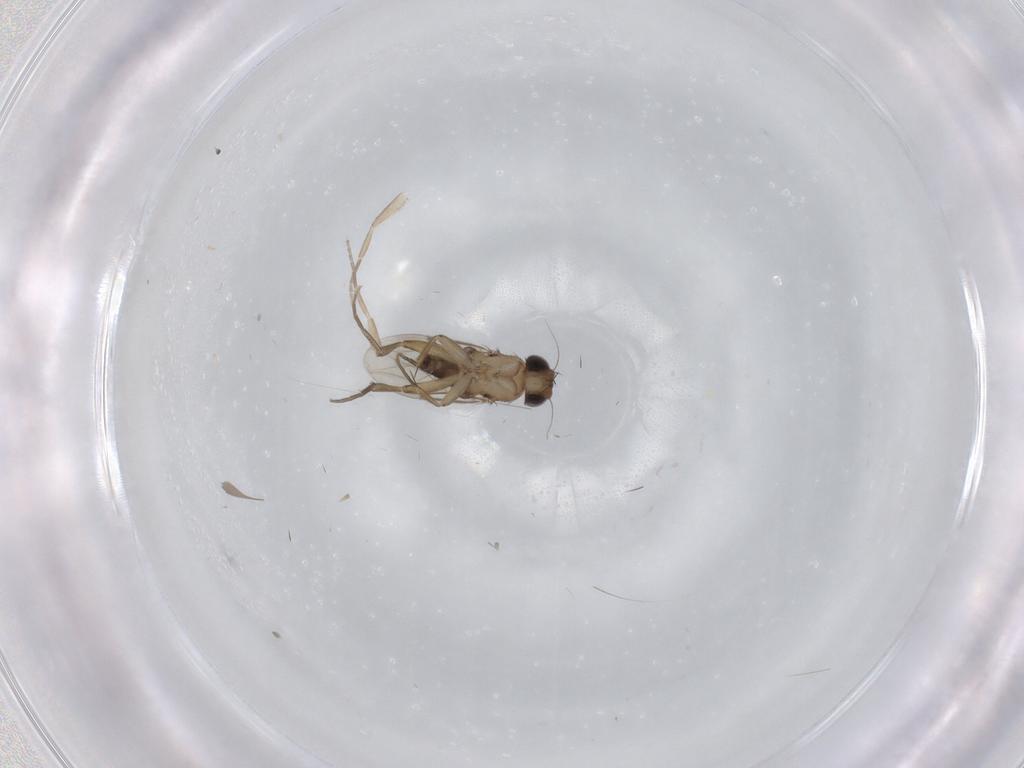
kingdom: Animalia
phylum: Arthropoda
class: Insecta
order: Diptera
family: Phoridae
